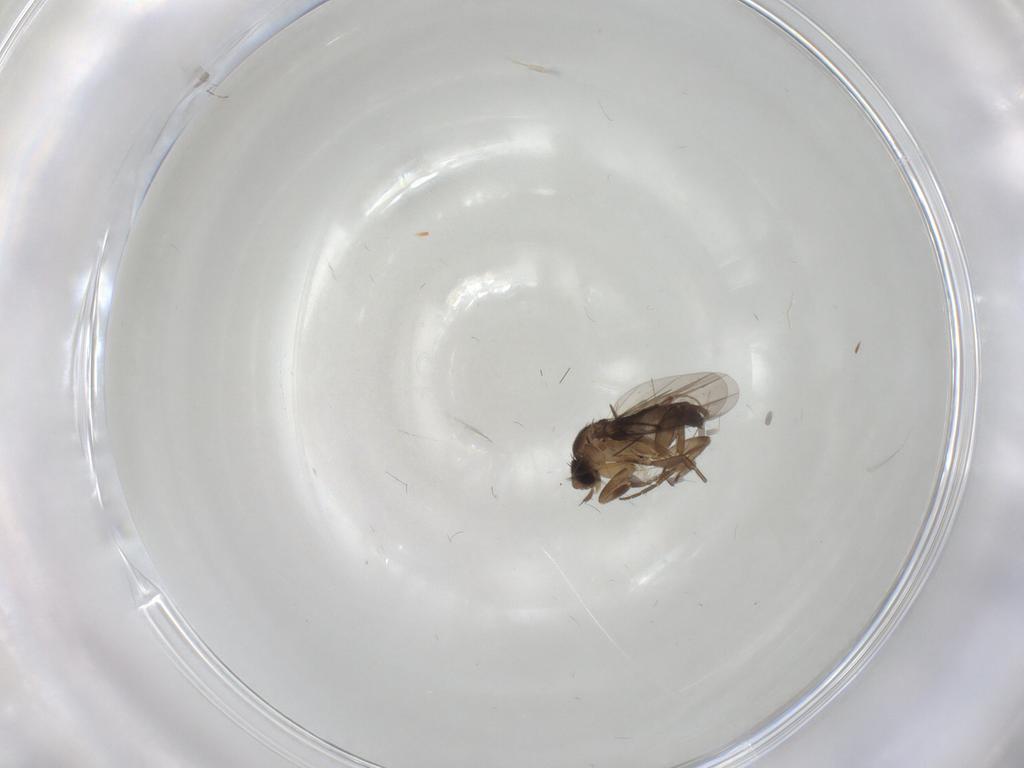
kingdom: Animalia
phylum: Arthropoda
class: Insecta
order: Diptera
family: Phoridae
